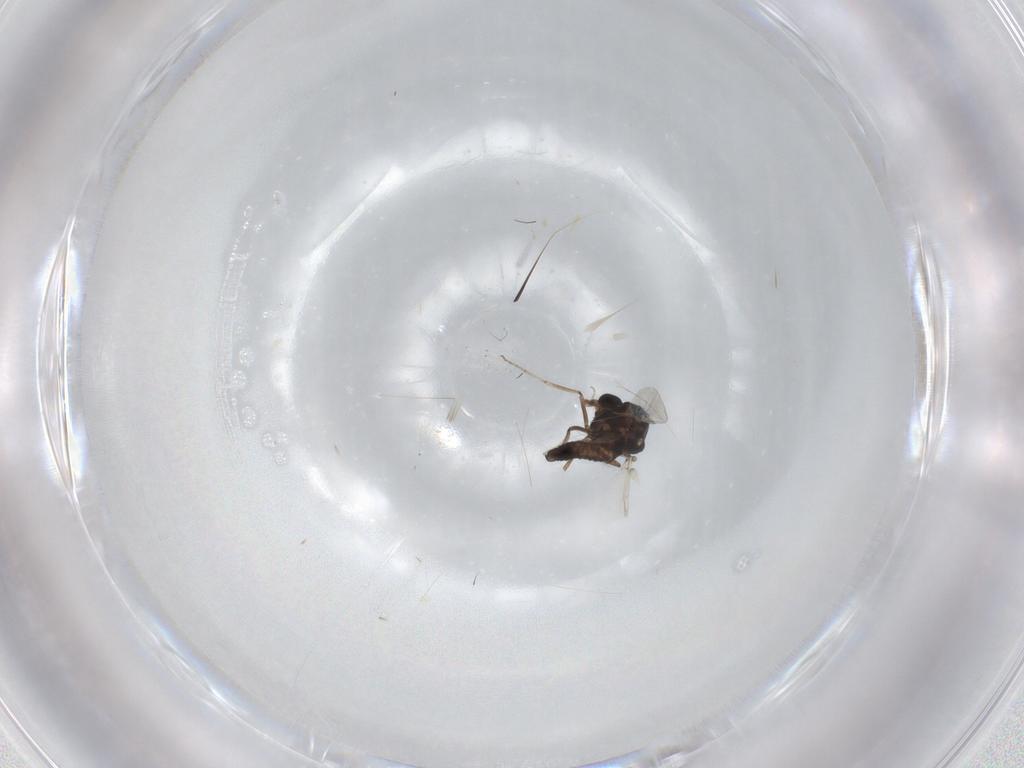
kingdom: Animalia
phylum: Arthropoda
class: Insecta
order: Diptera
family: Ceratopogonidae
